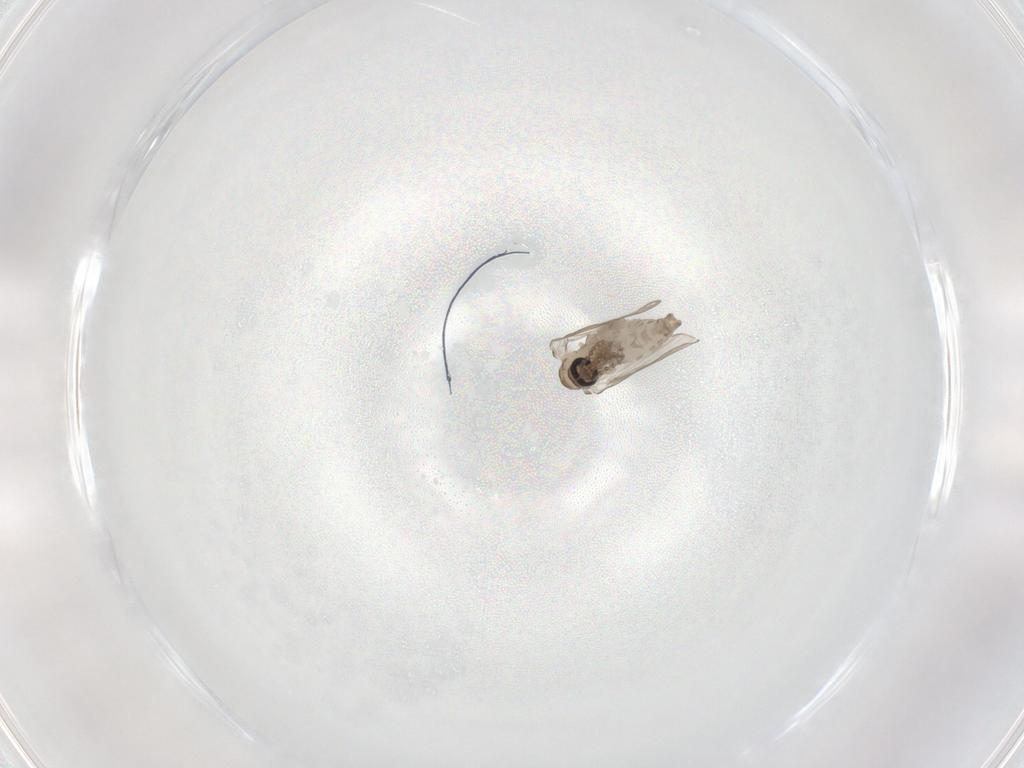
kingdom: Animalia
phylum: Arthropoda
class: Insecta
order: Diptera
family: Psychodidae
